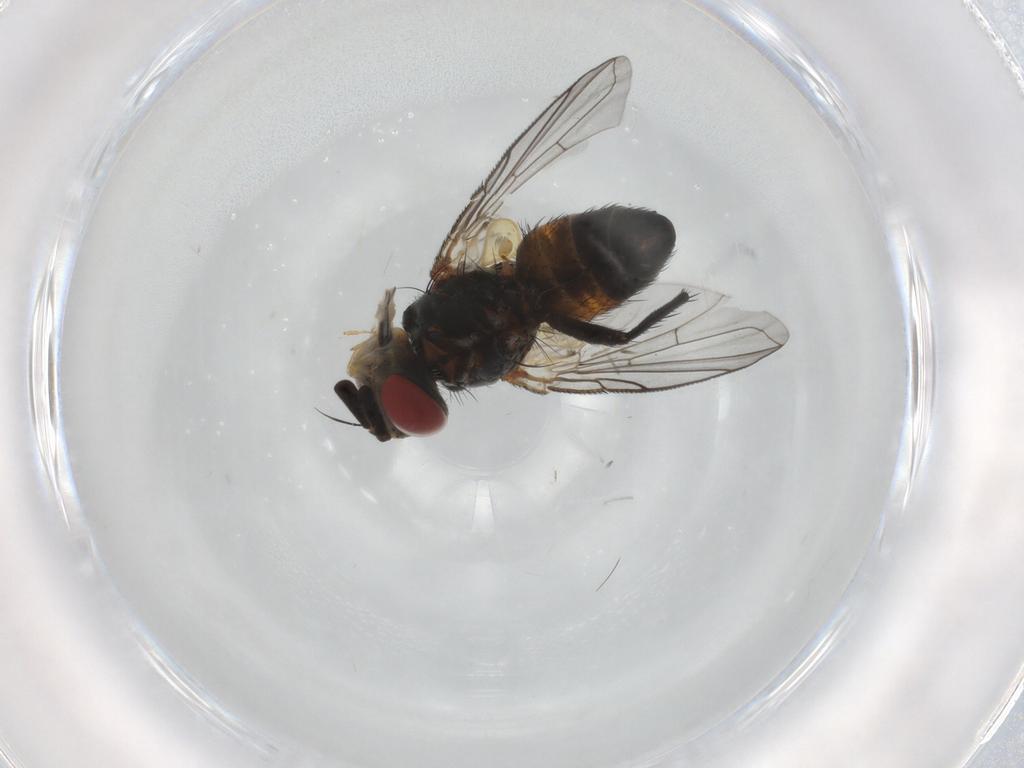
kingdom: Animalia
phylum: Arthropoda
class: Insecta
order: Diptera
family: Tachinidae
